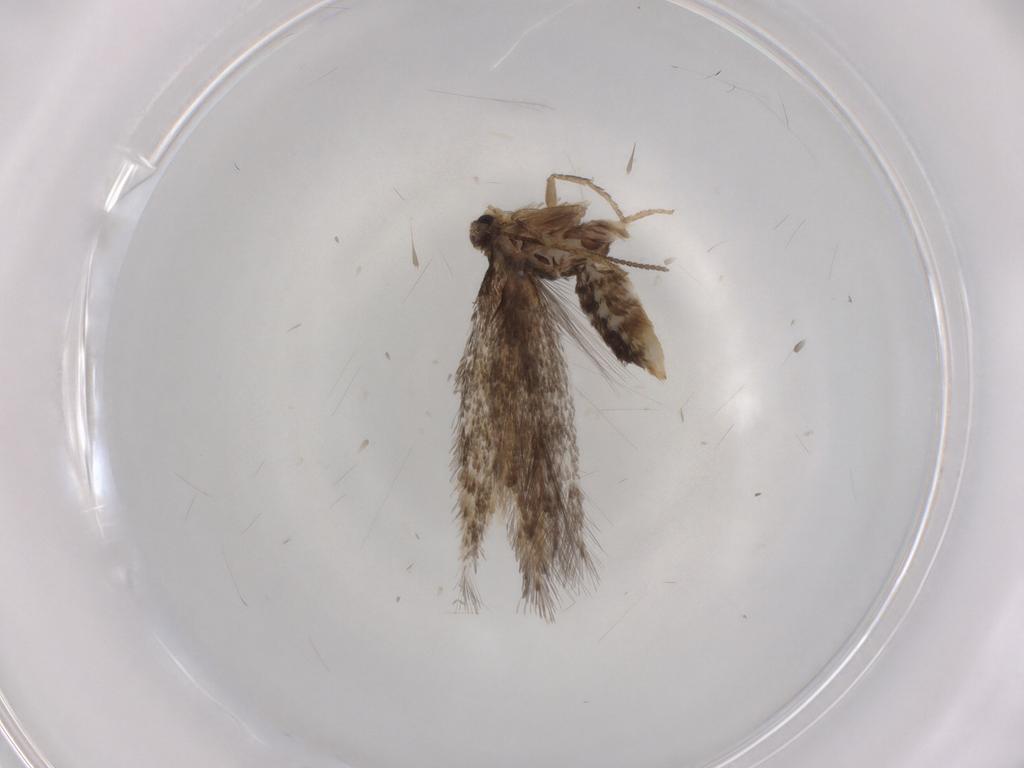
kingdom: Animalia
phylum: Arthropoda
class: Insecta
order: Lepidoptera
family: Nepticulidae
